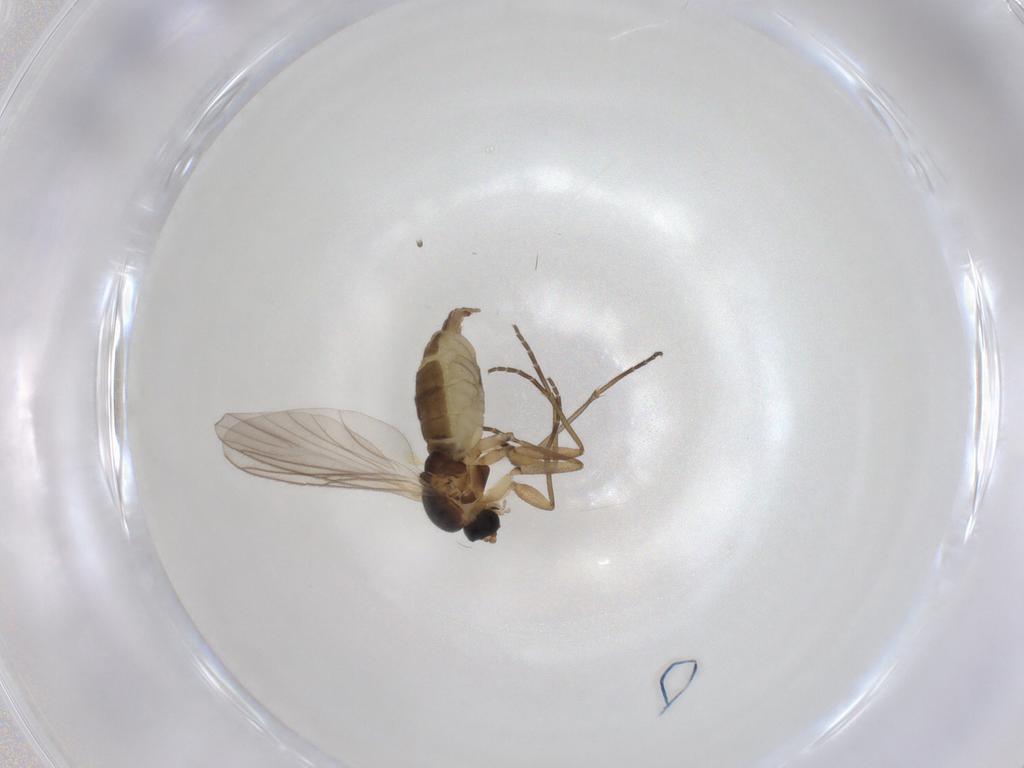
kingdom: Animalia
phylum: Arthropoda
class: Insecta
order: Diptera
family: Sciaridae
